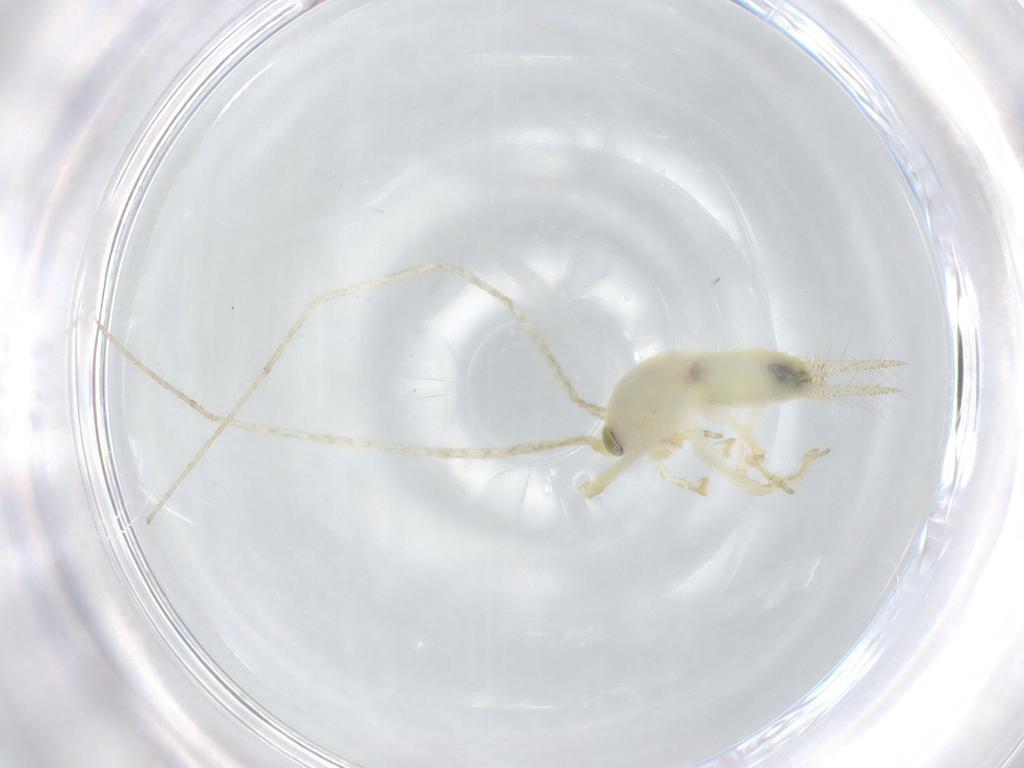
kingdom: Animalia
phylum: Arthropoda
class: Insecta
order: Orthoptera
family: Trigonidiidae
